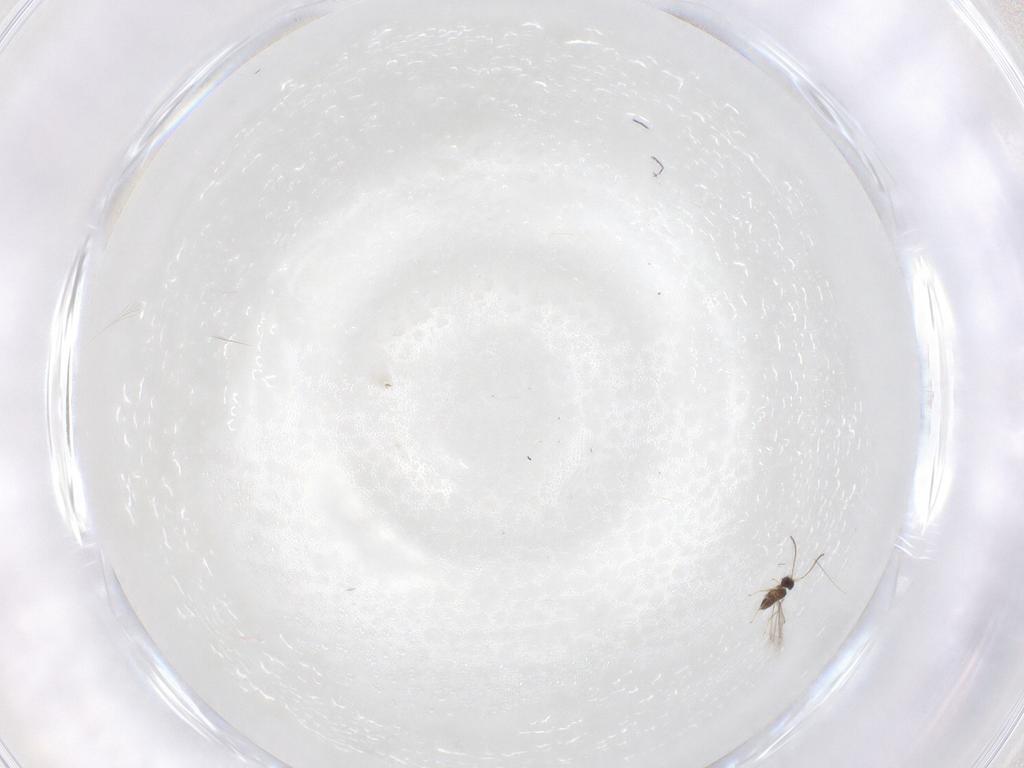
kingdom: Animalia
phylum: Arthropoda
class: Insecta
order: Hymenoptera
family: Mymaridae
